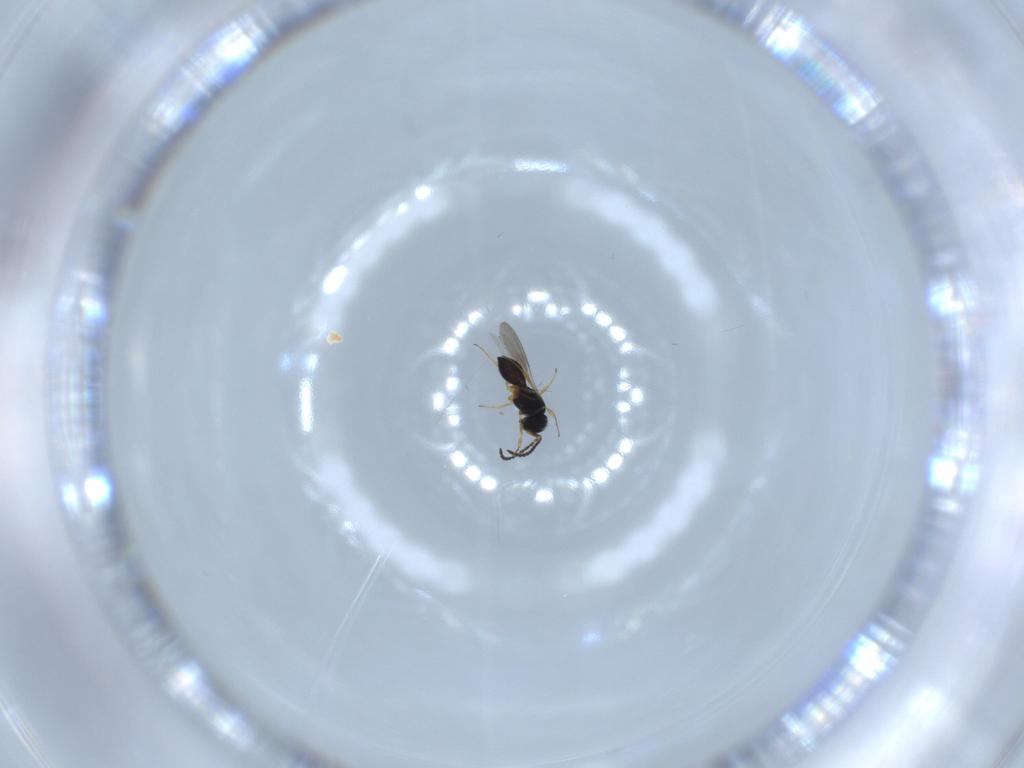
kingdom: Animalia
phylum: Arthropoda
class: Insecta
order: Hymenoptera
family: Scelionidae
